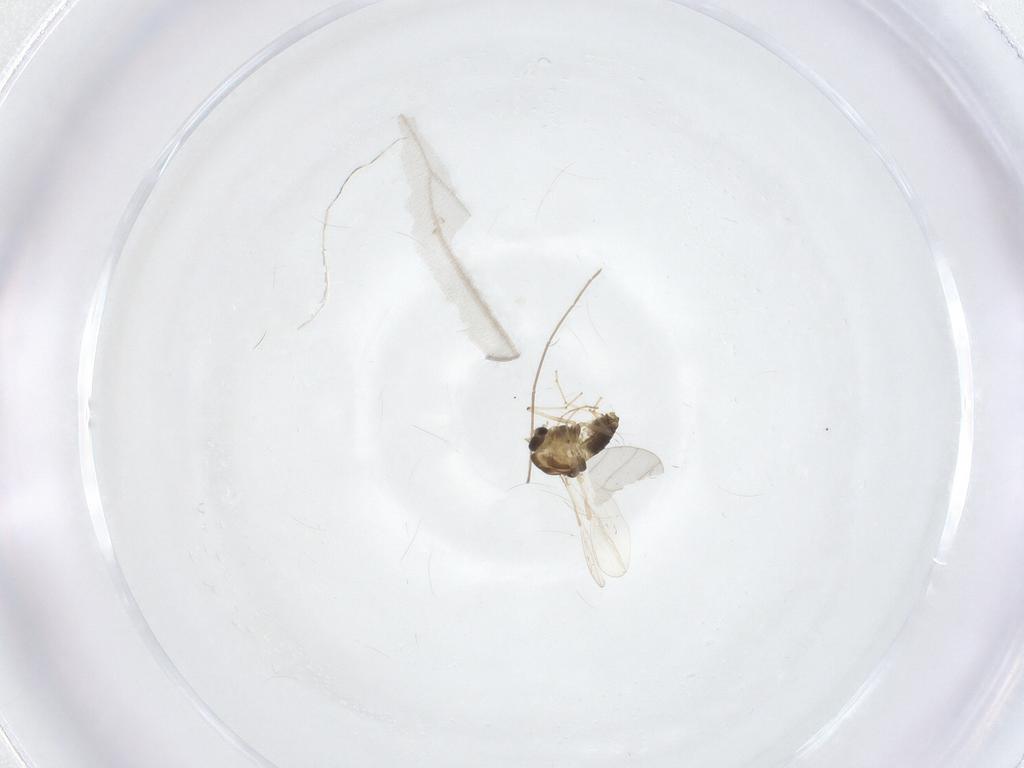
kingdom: Animalia
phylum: Arthropoda
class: Insecta
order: Diptera
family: Chironomidae
